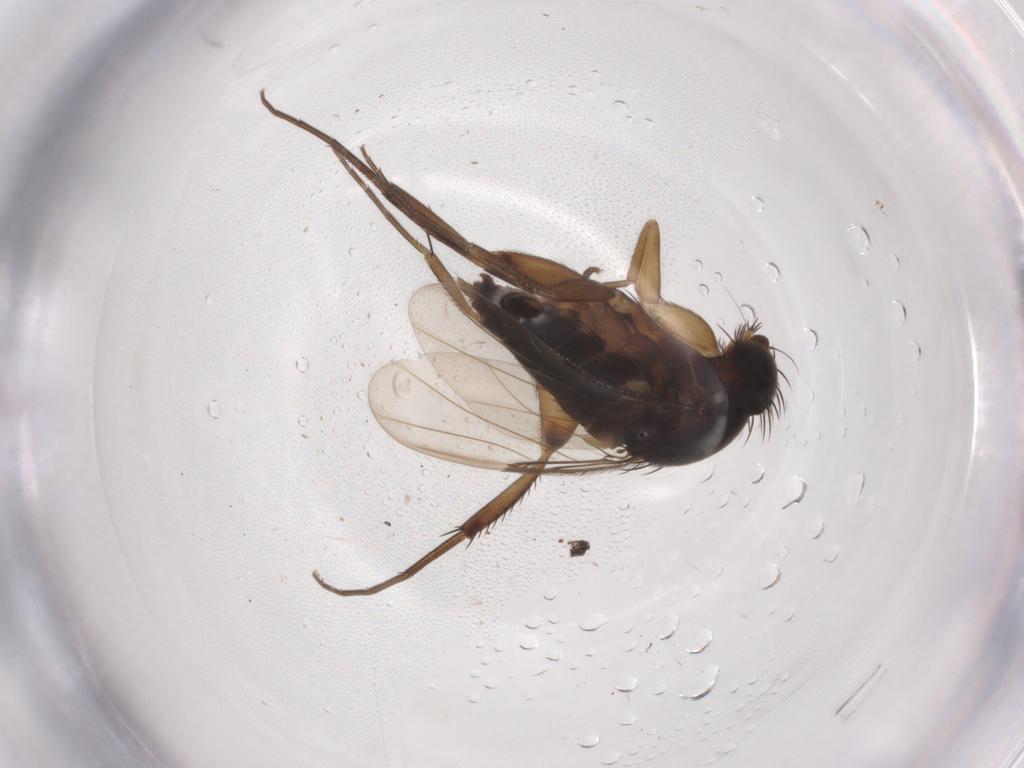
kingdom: Animalia
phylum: Arthropoda
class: Insecta
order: Diptera
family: Phoridae
